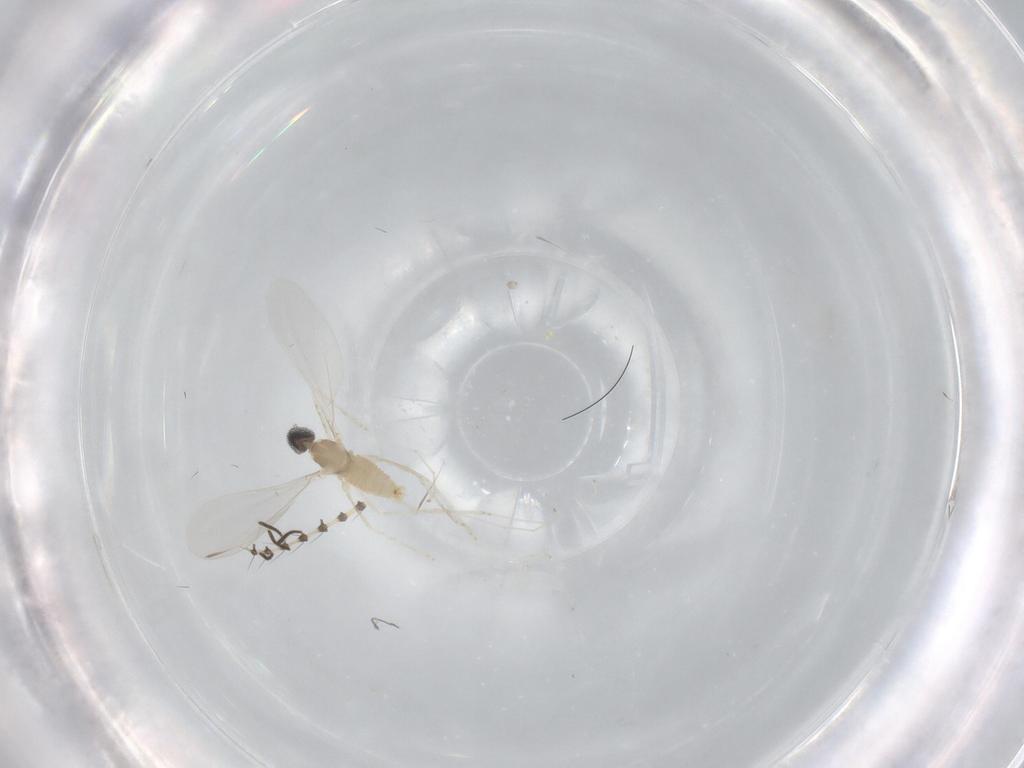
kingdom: Animalia
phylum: Arthropoda
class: Insecta
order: Diptera
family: Cecidomyiidae
